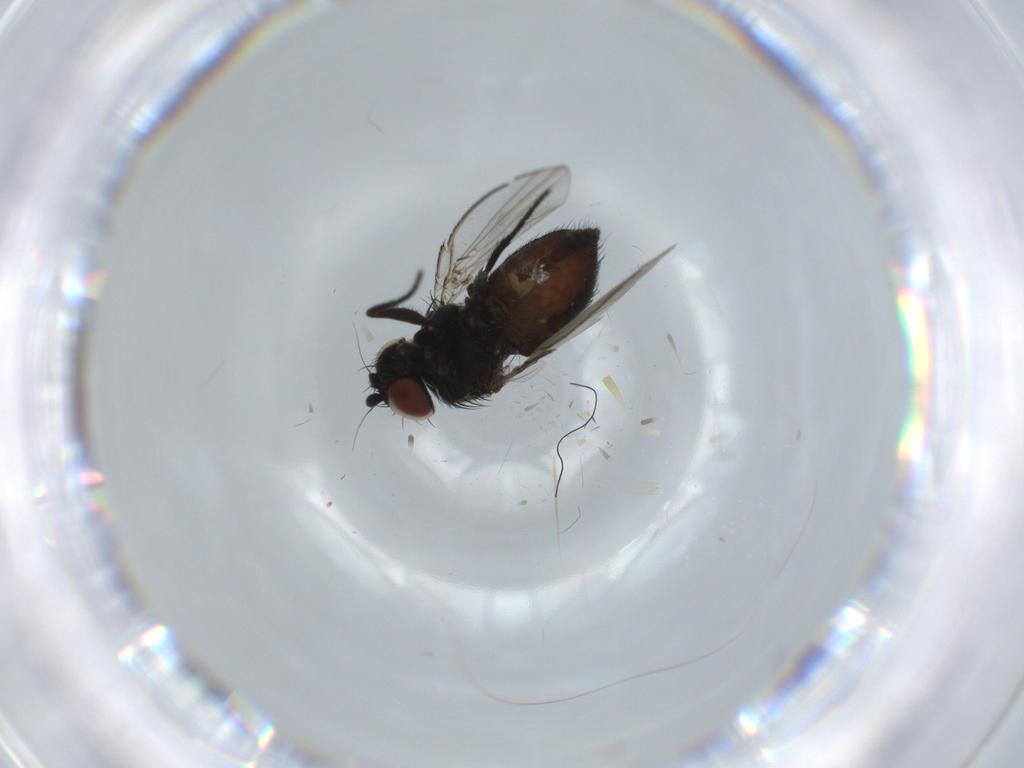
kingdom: Animalia
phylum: Arthropoda
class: Insecta
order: Diptera
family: Milichiidae
